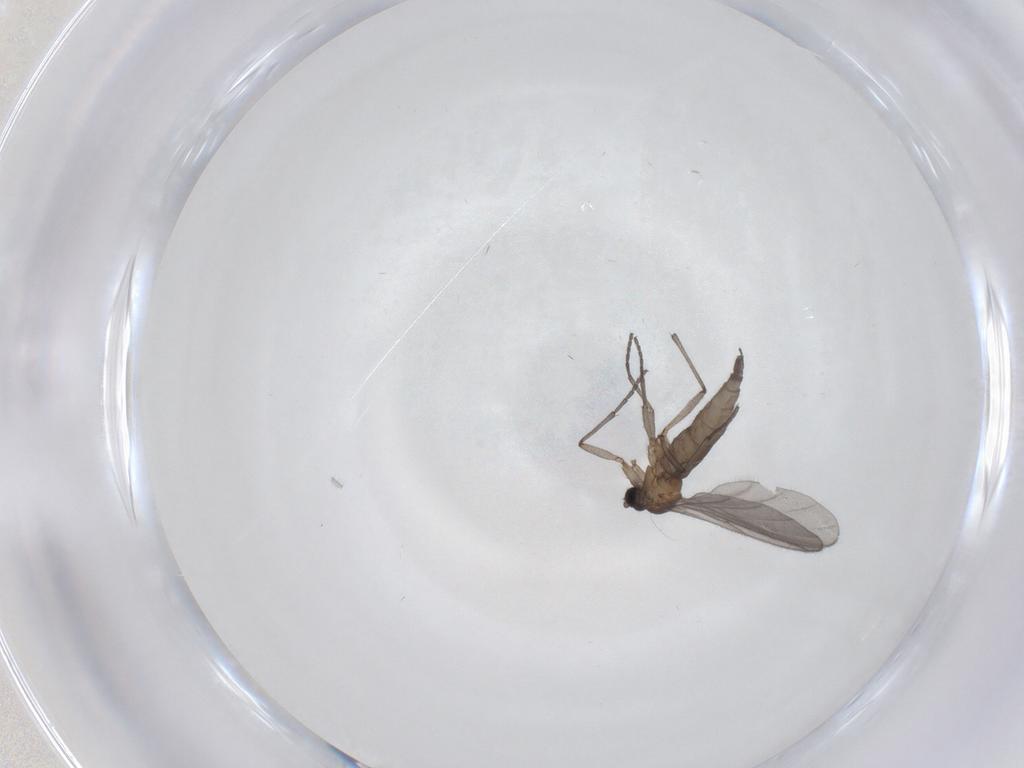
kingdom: Animalia
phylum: Arthropoda
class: Insecta
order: Diptera
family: Sciaridae
